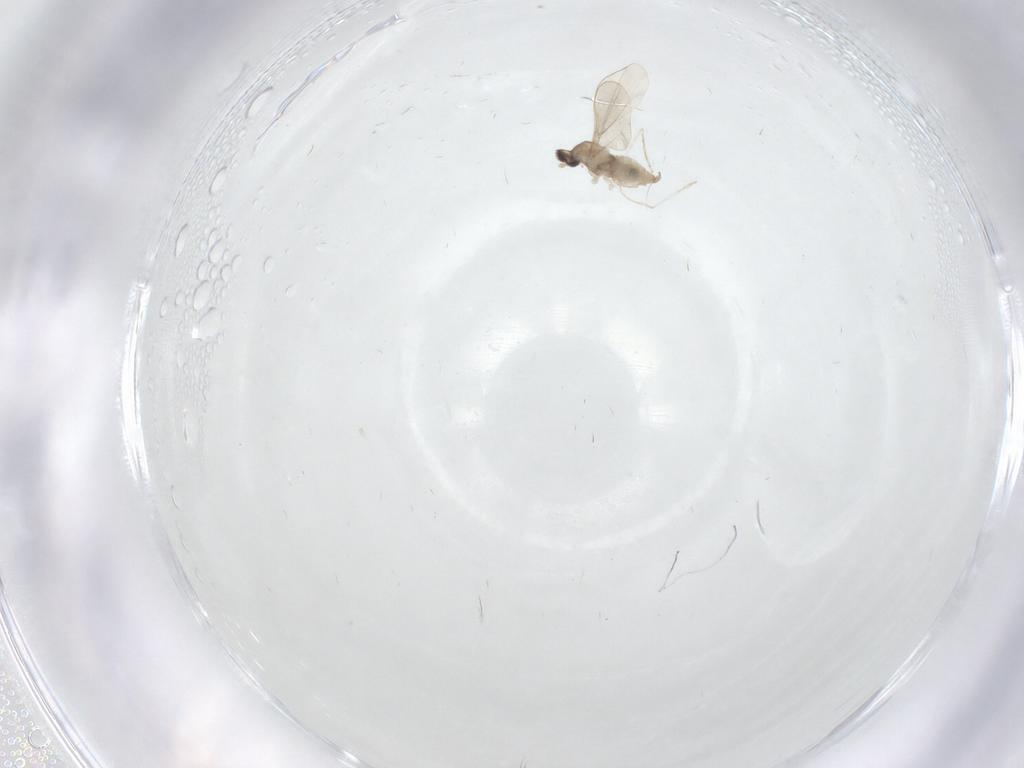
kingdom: Animalia
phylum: Arthropoda
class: Insecta
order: Diptera
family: Cecidomyiidae
